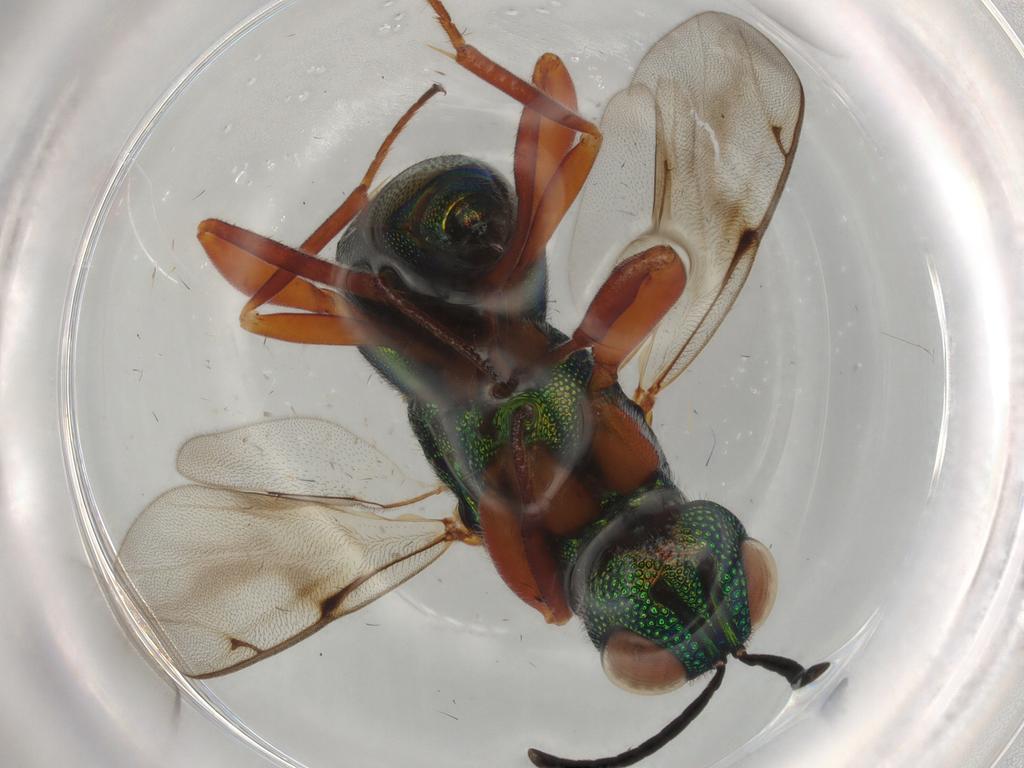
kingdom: Animalia
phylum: Arthropoda
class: Insecta
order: Hymenoptera
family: Lyciscidae
